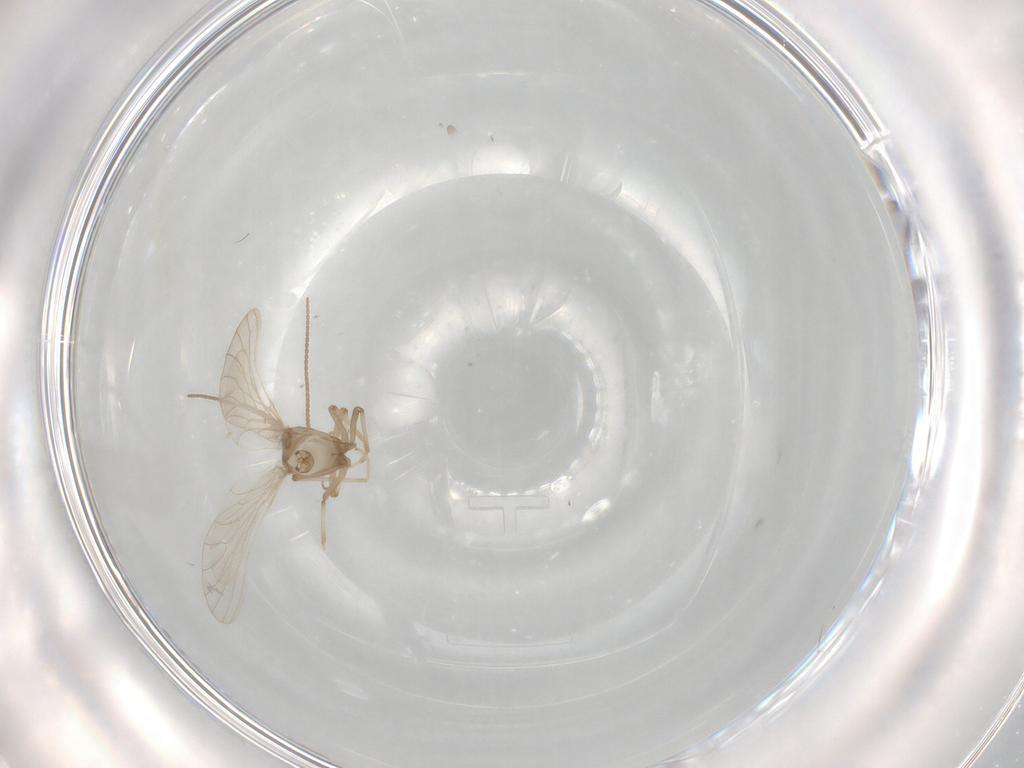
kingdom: Animalia
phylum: Arthropoda
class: Insecta
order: Neuroptera
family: Coniopterygidae
